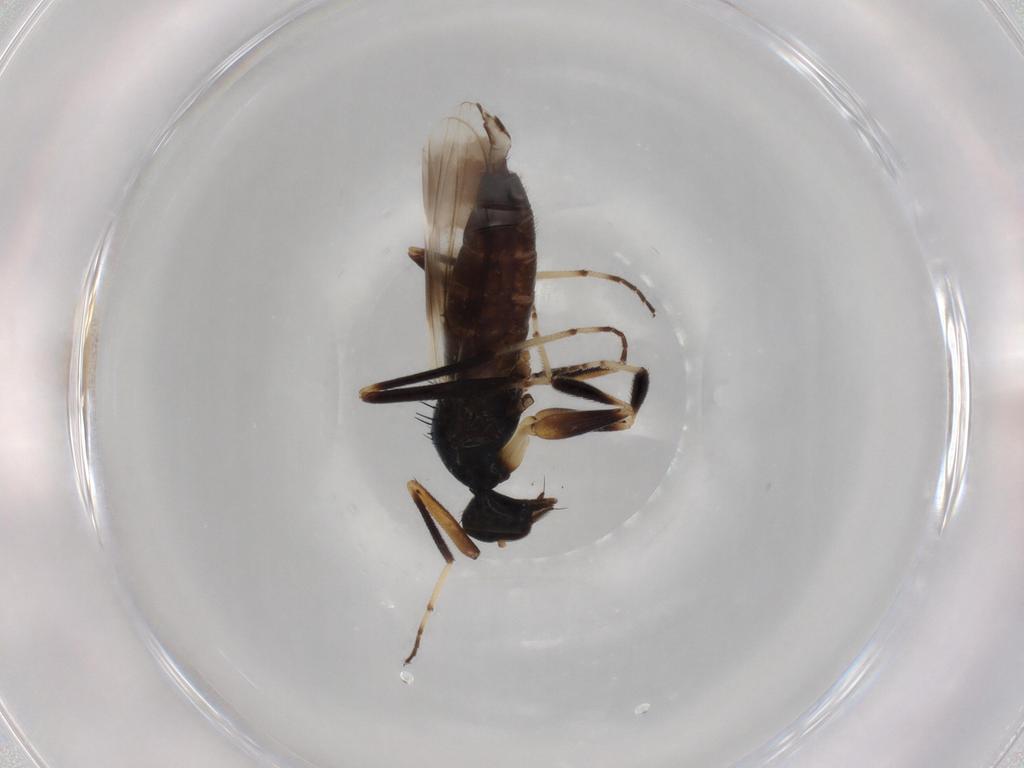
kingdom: Animalia
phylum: Arthropoda
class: Insecta
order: Diptera
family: Hybotidae
